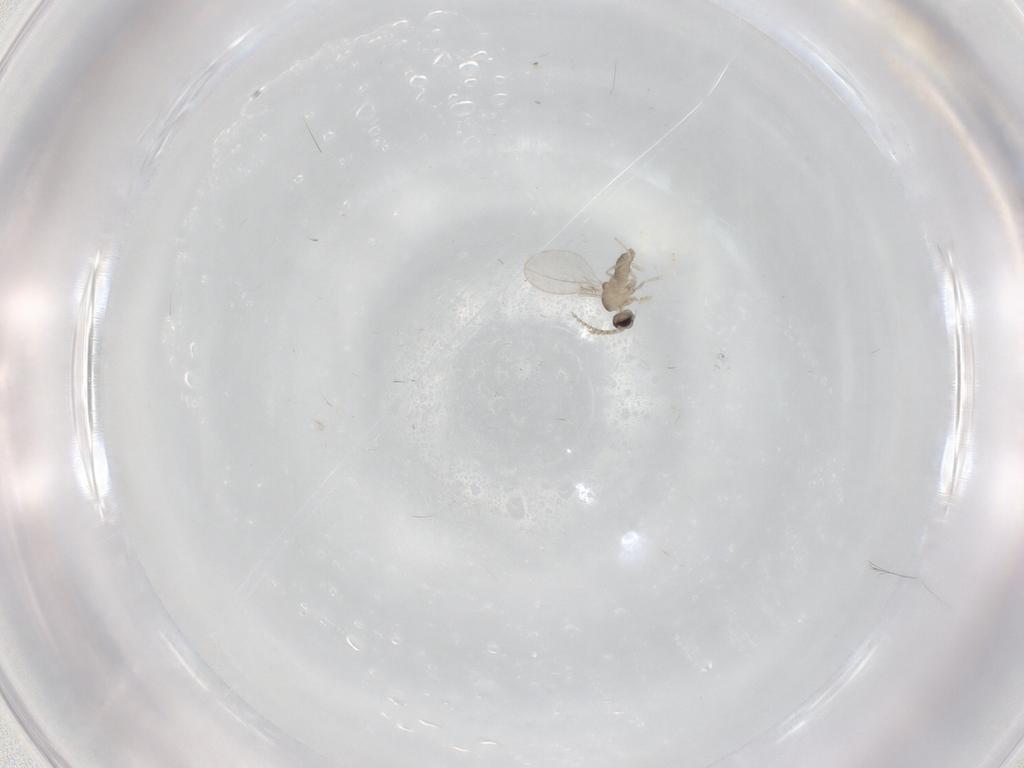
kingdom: Animalia
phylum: Arthropoda
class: Insecta
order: Diptera
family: Cecidomyiidae
